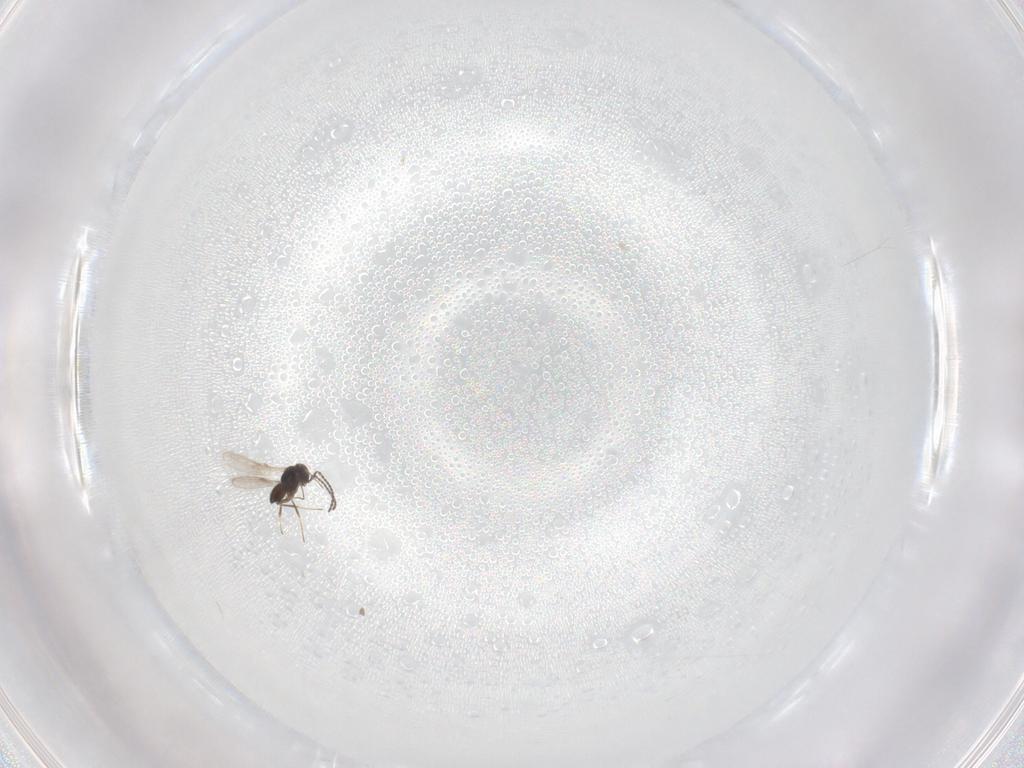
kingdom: Animalia
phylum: Arthropoda
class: Insecta
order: Hymenoptera
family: Scelionidae
